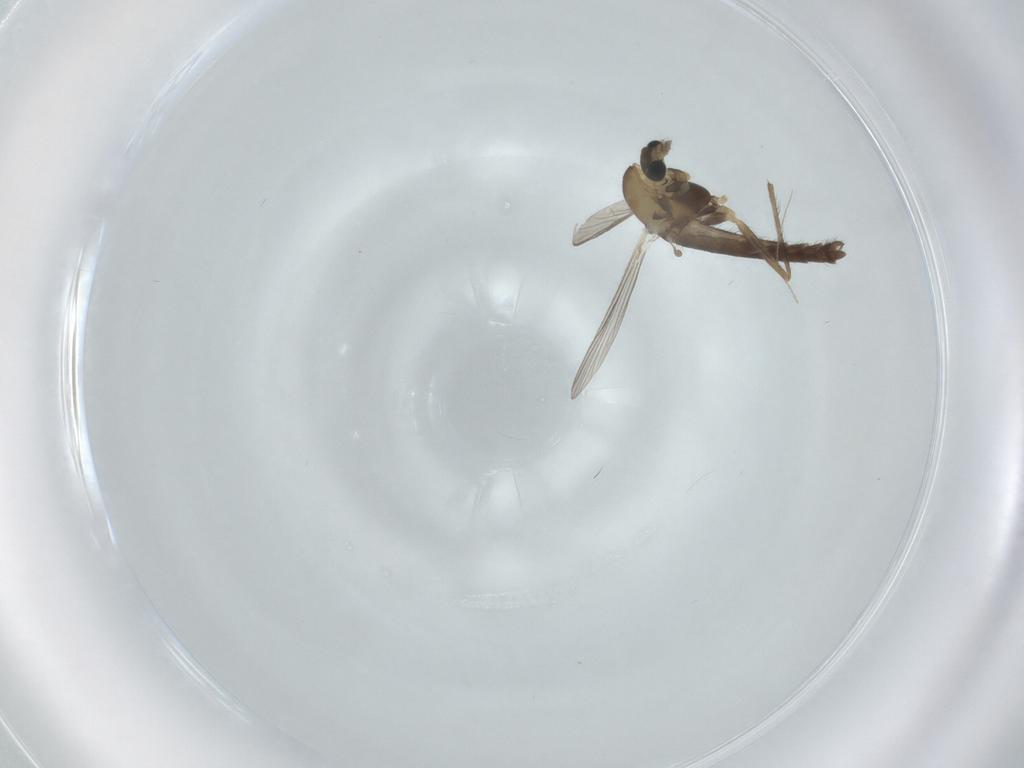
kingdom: Animalia
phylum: Arthropoda
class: Insecta
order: Diptera
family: Chironomidae
